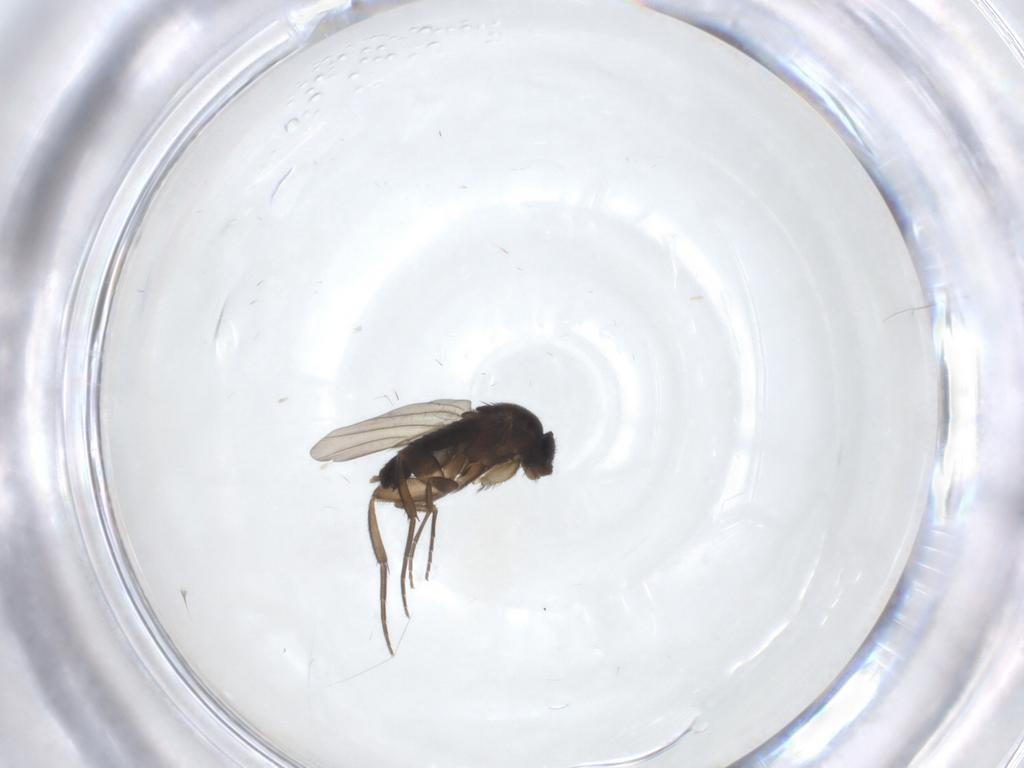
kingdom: Animalia
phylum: Arthropoda
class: Insecta
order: Diptera
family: Phoridae
